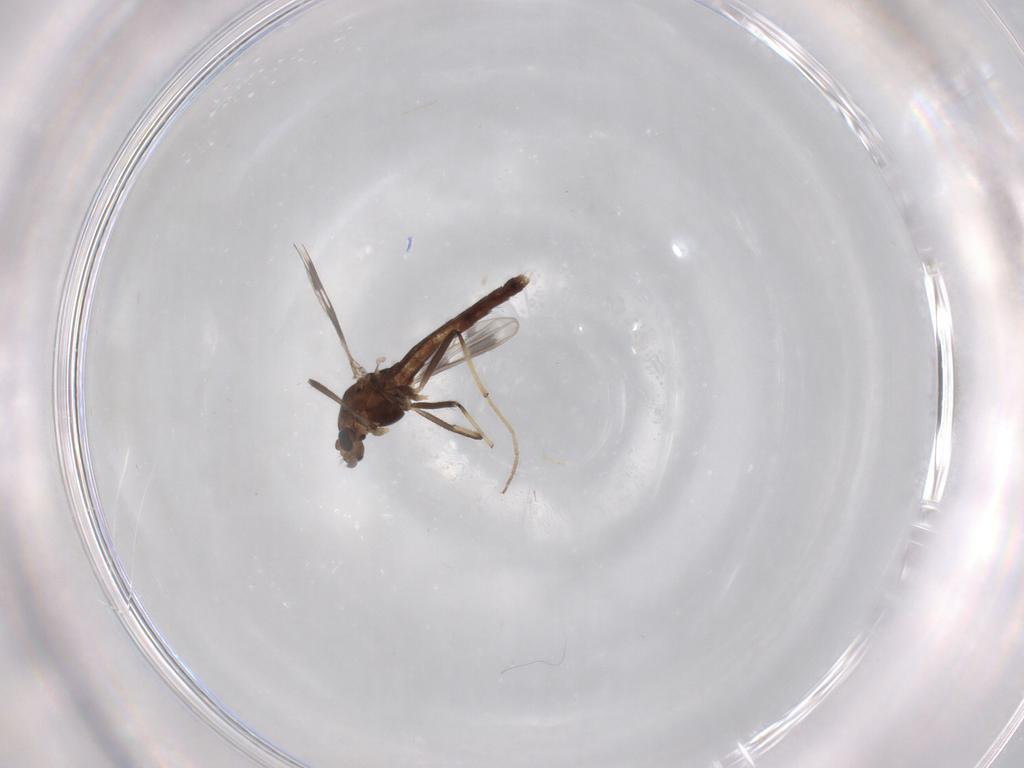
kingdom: Animalia
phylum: Arthropoda
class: Insecta
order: Diptera
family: Chironomidae
